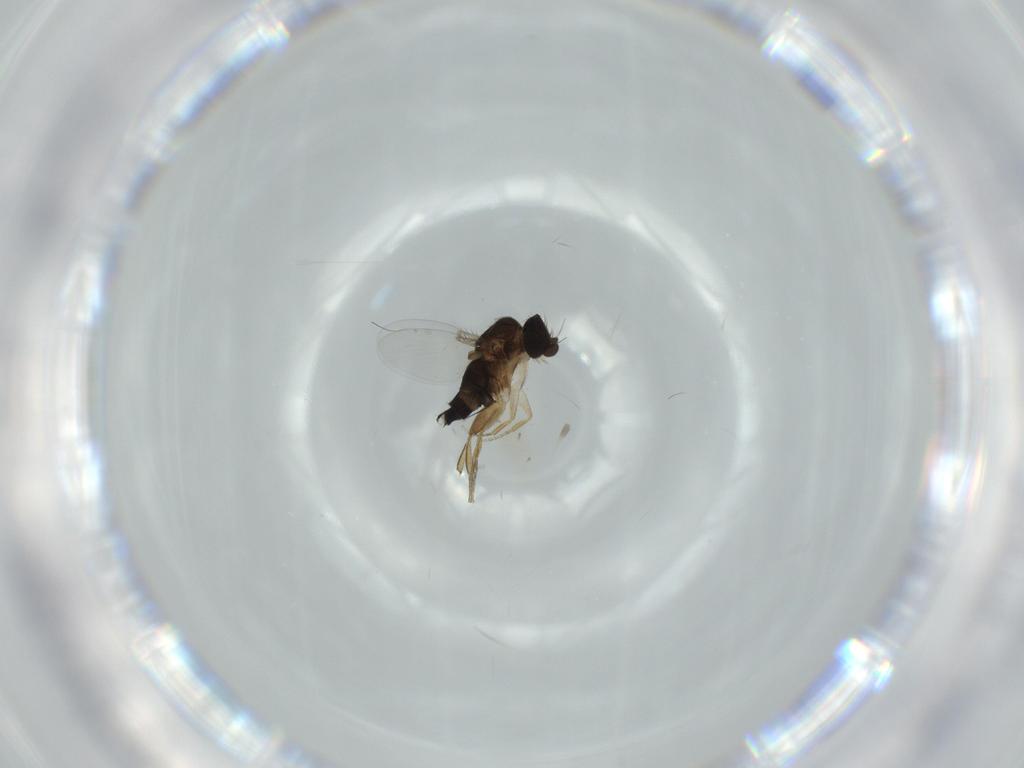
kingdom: Animalia
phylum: Arthropoda
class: Insecta
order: Diptera
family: Phoridae
